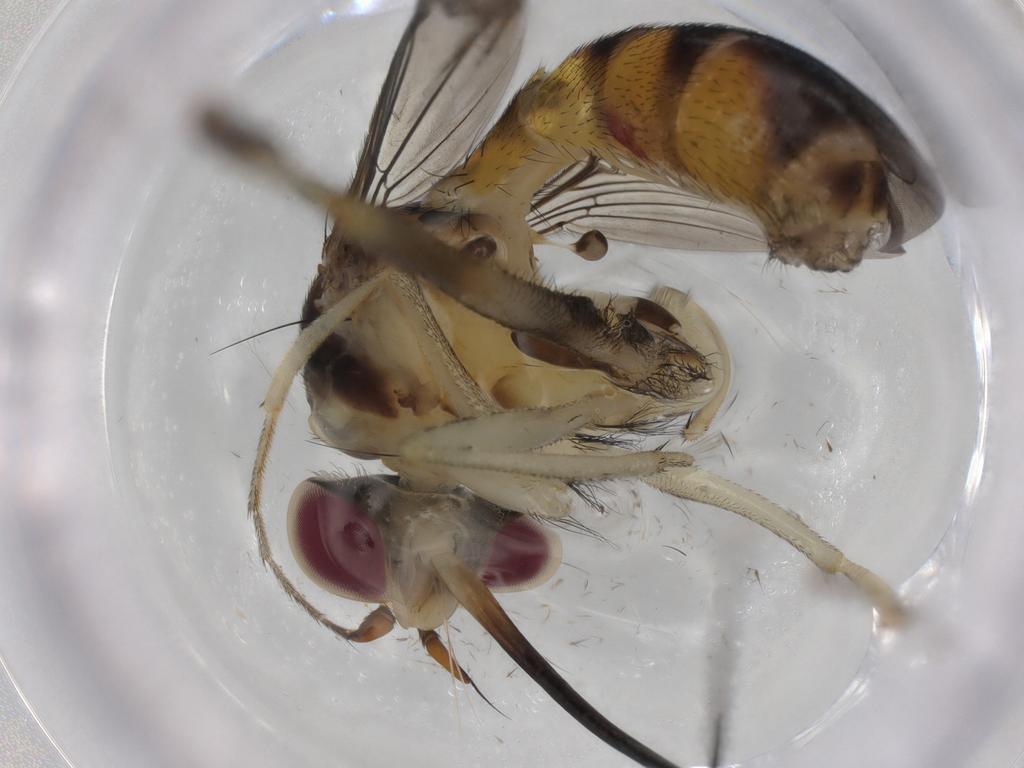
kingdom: Animalia
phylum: Arthropoda
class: Insecta
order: Diptera
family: Conopidae
